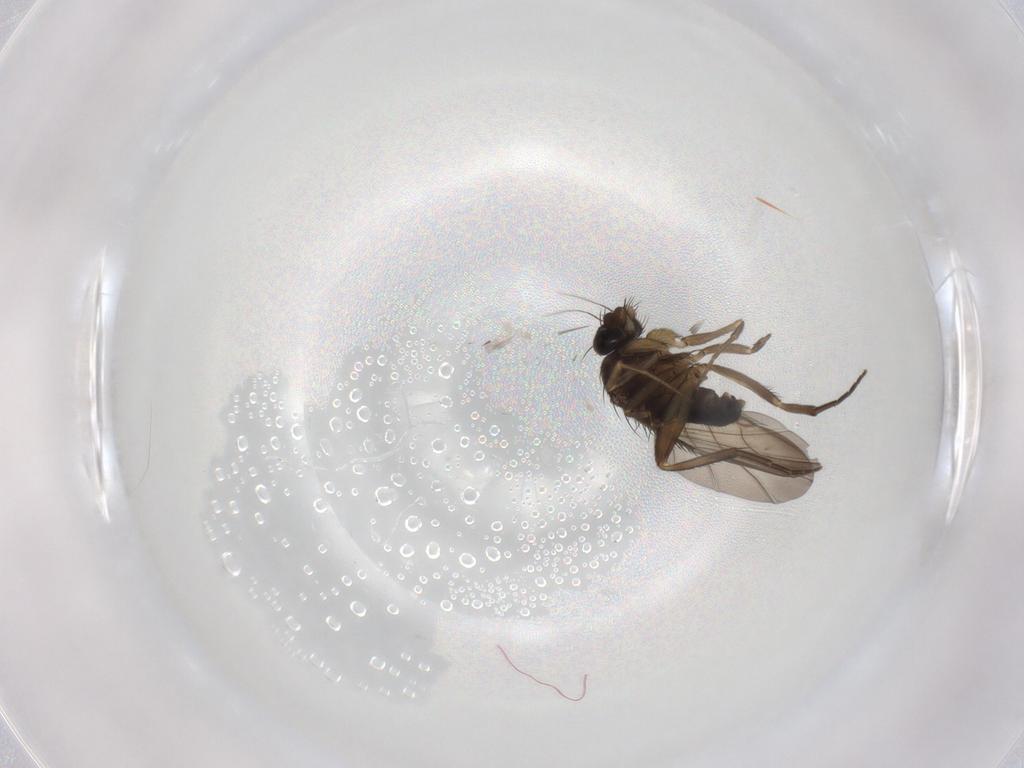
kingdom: Animalia
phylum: Arthropoda
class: Insecta
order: Diptera
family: Phoridae
